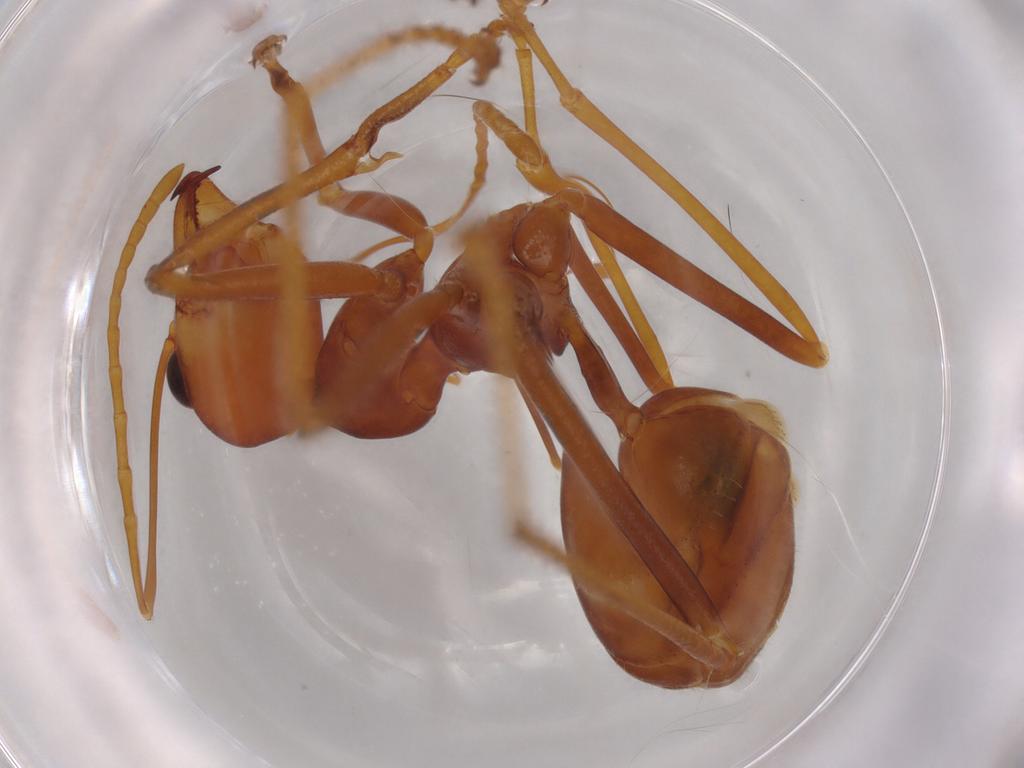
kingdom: Animalia
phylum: Arthropoda
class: Insecta
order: Hymenoptera
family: Formicidae
